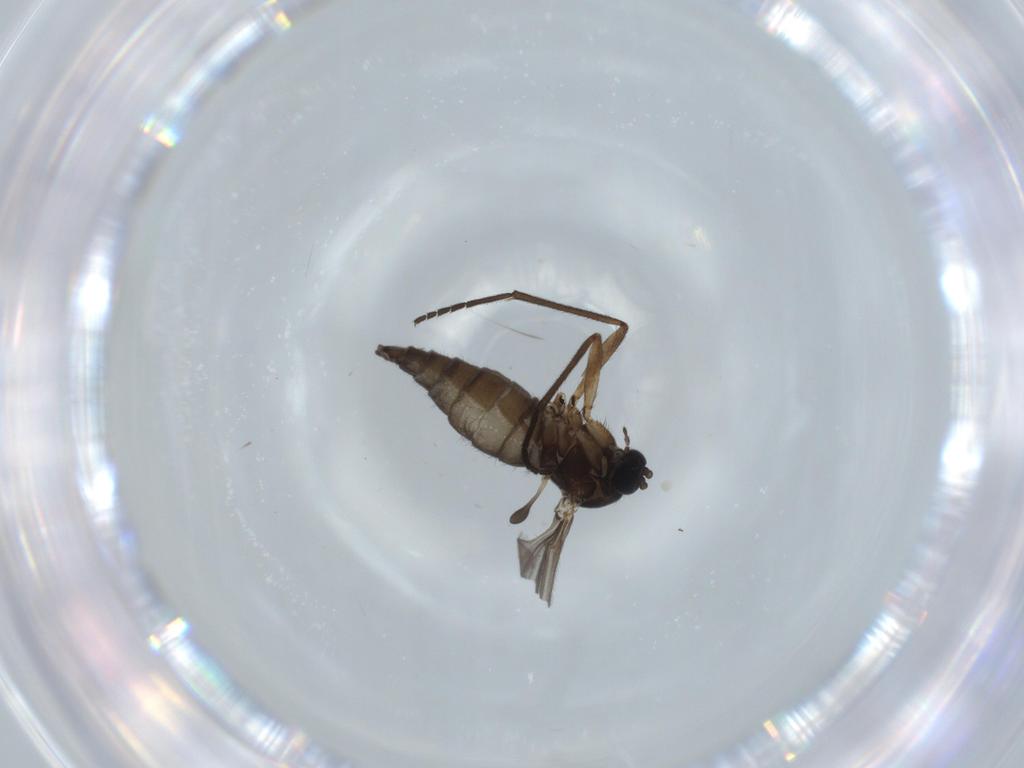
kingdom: Animalia
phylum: Arthropoda
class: Insecta
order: Diptera
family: Sciaridae
